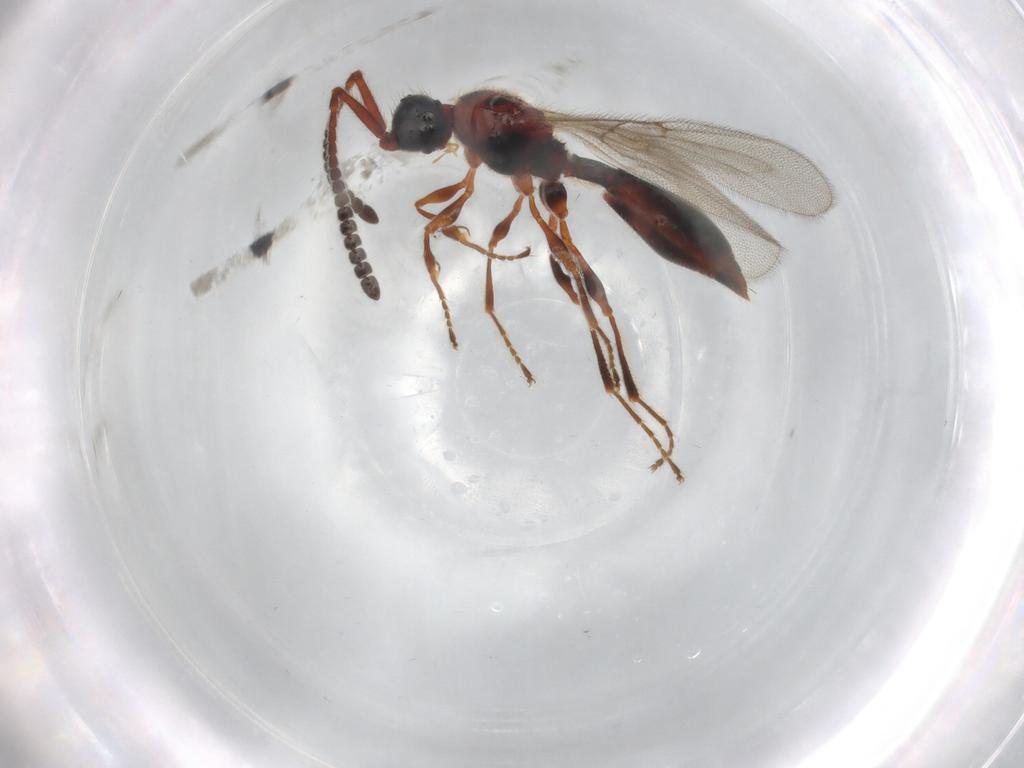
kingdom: Animalia
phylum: Arthropoda
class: Insecta
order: Hymenoptera
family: Diapriidae
